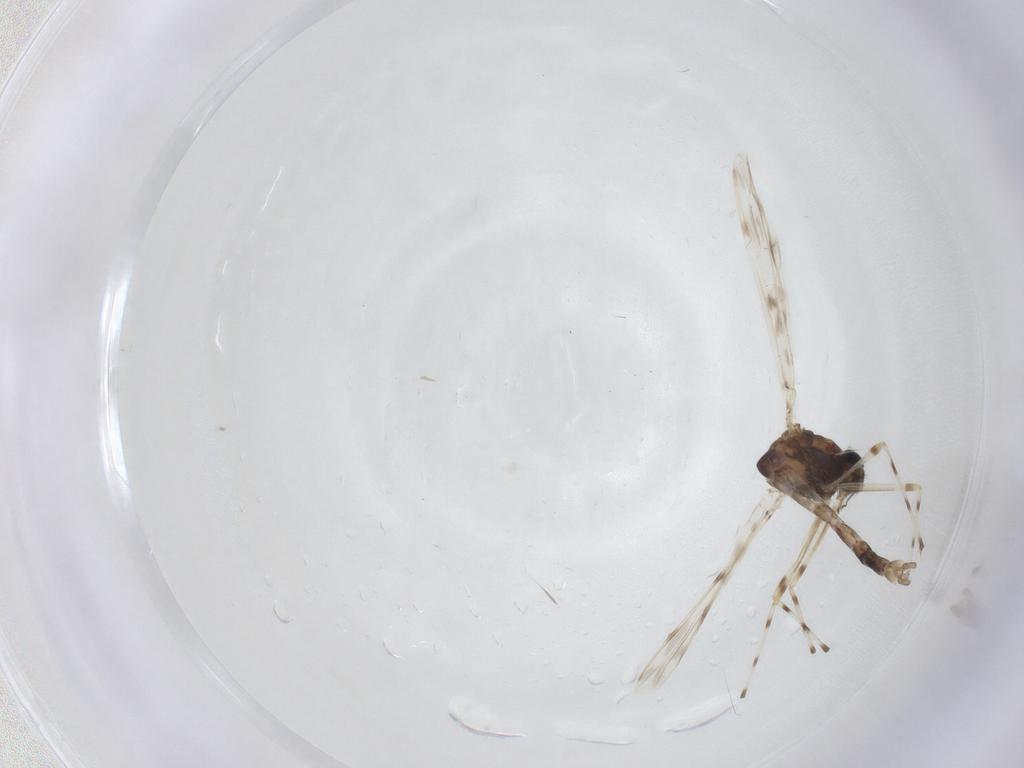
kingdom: Animalia
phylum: Arthropoda
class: Insecta
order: Diptera
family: Chironomidae
